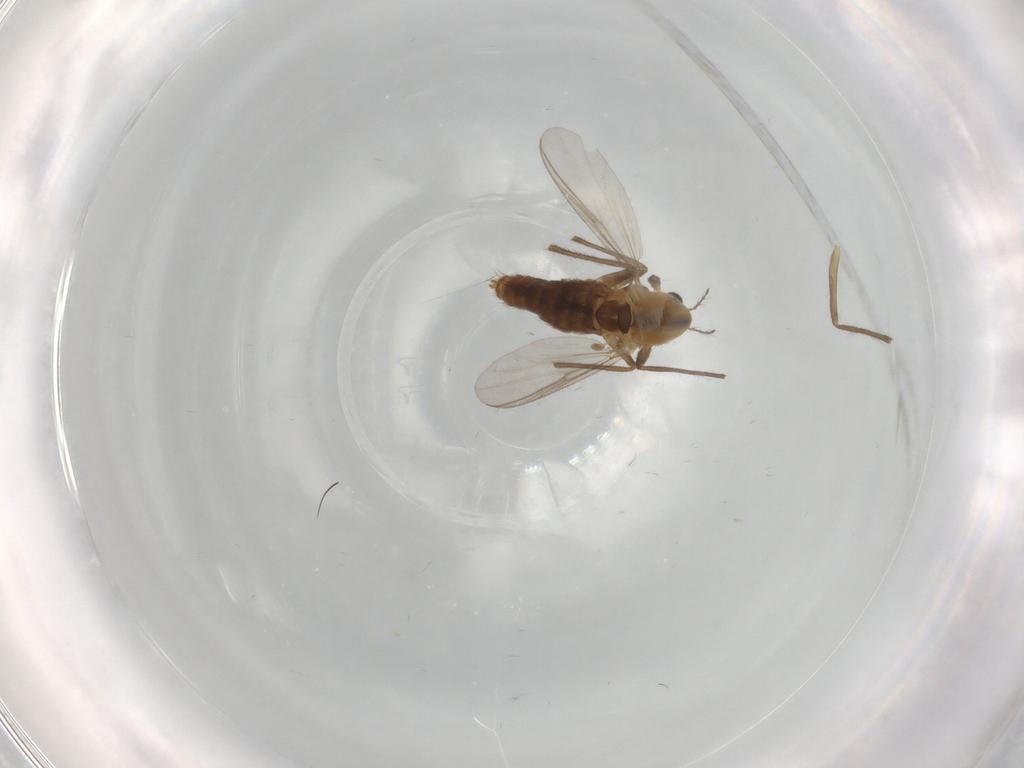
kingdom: Animalia
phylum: Arthropoda
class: Insecta
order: Diptera
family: Chironomidae
